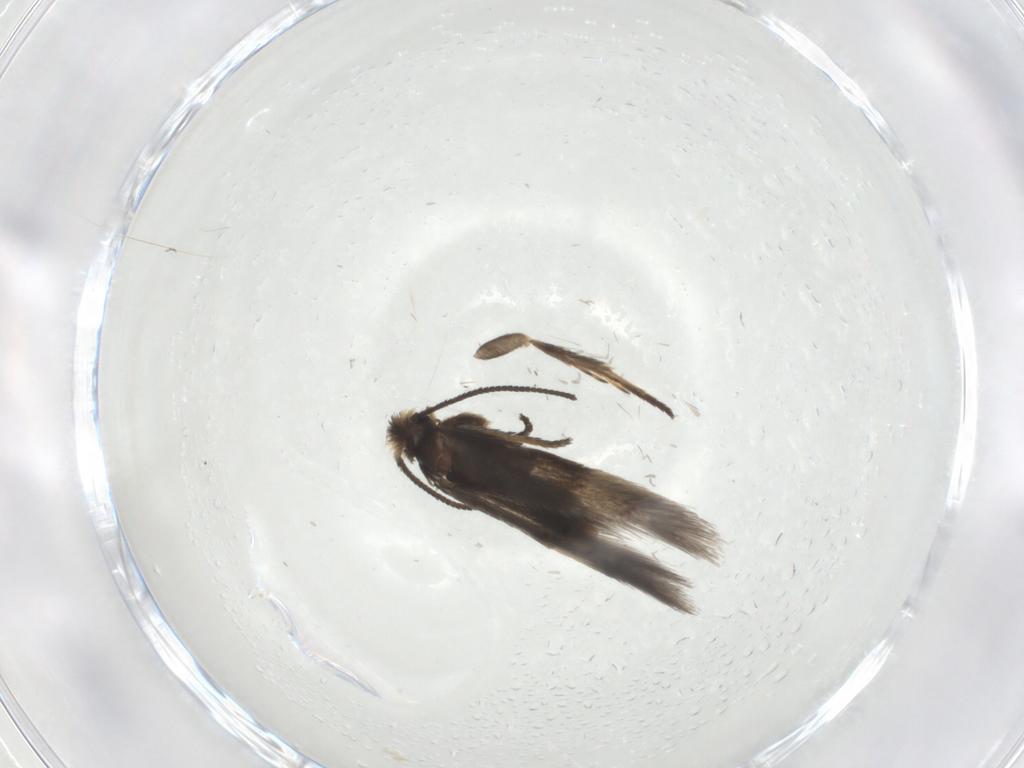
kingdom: Animalia
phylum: Arthropoda
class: Insecta
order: Lepidoptera
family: Nepticulidae
